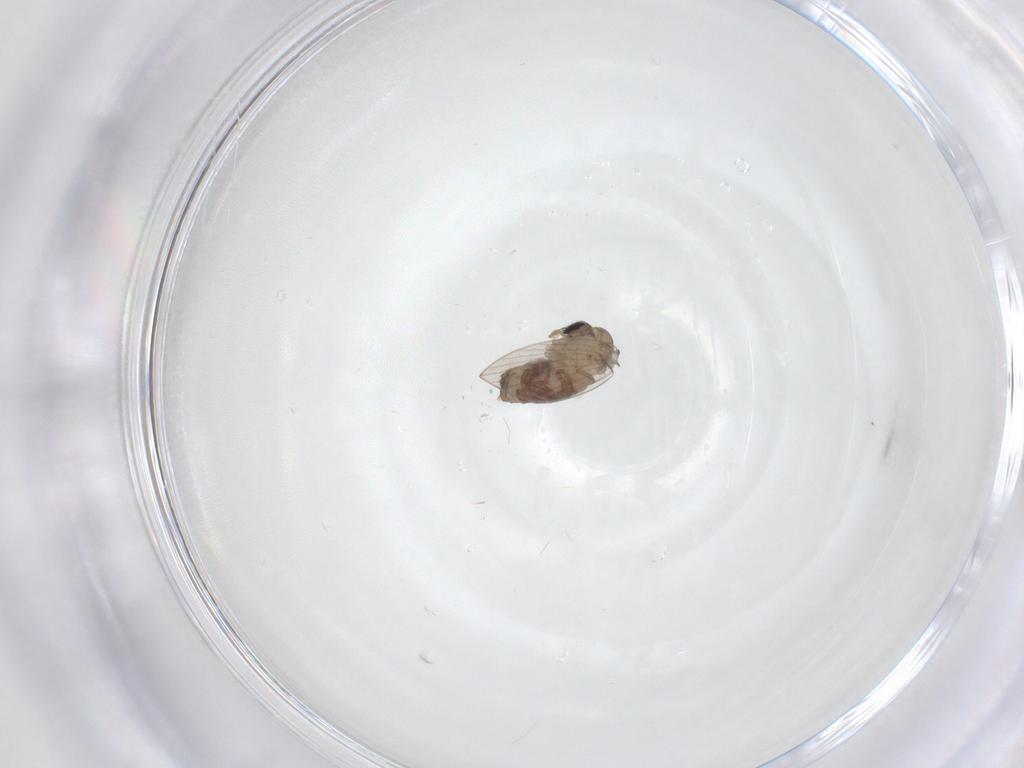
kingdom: Animalia
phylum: Arthropoda
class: Insecta
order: Diptera
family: Psychodidae
